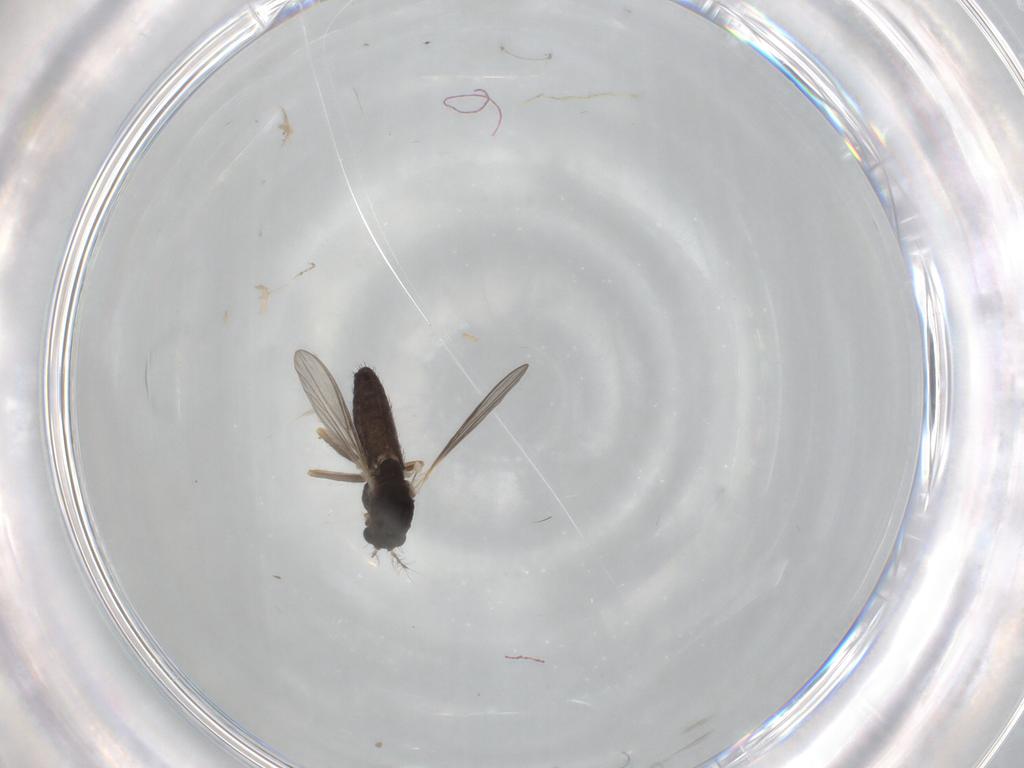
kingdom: Animalia
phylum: Arthropoda
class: Insecta
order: Diptera
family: Chironomidae
